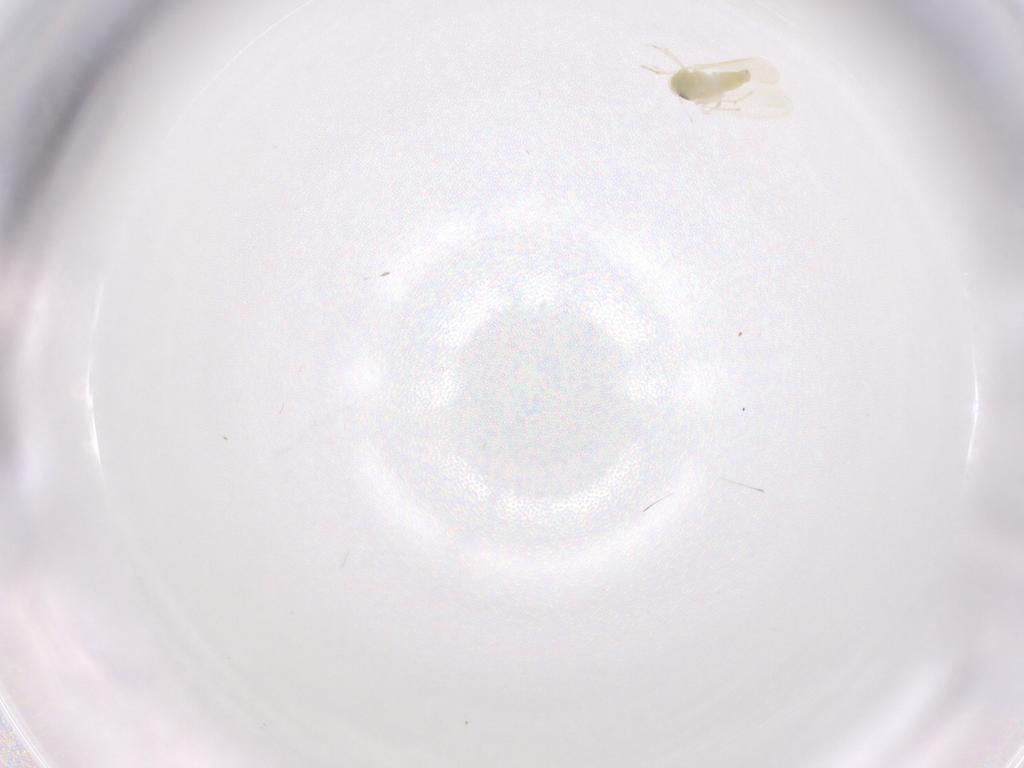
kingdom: Animalia
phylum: Arthropoda
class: Insecta
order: Hemiptera
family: Aleyrodidae
